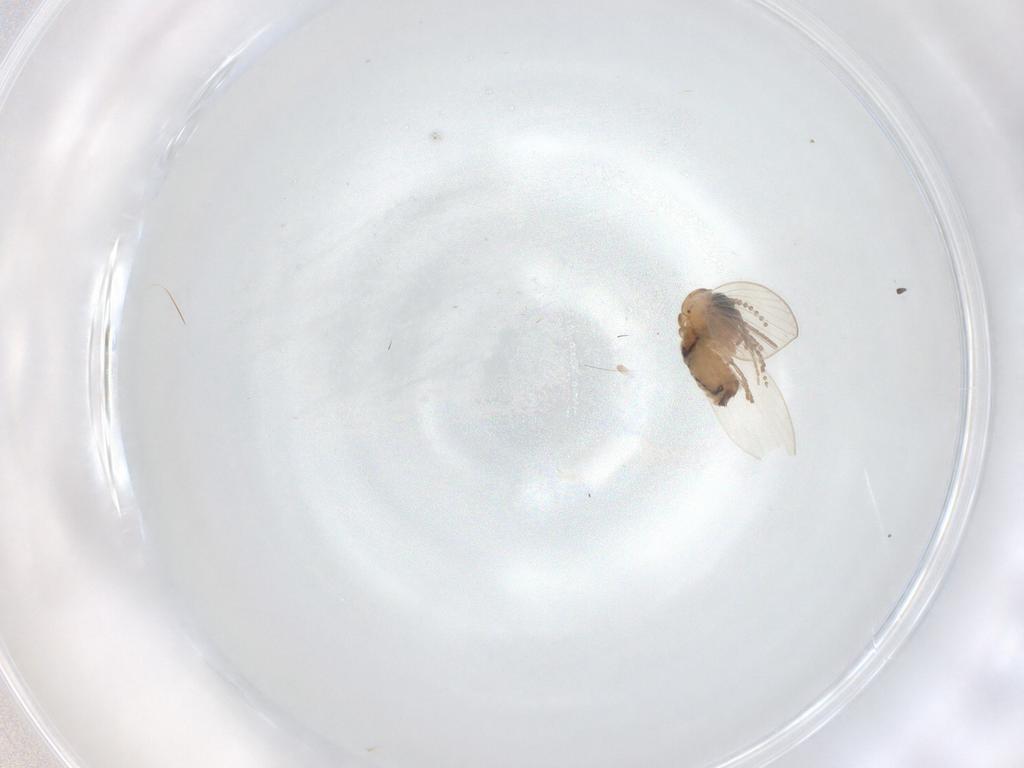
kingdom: Animalia
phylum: Arthropoda
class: Insecta
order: Diptera
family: Psychodidae
